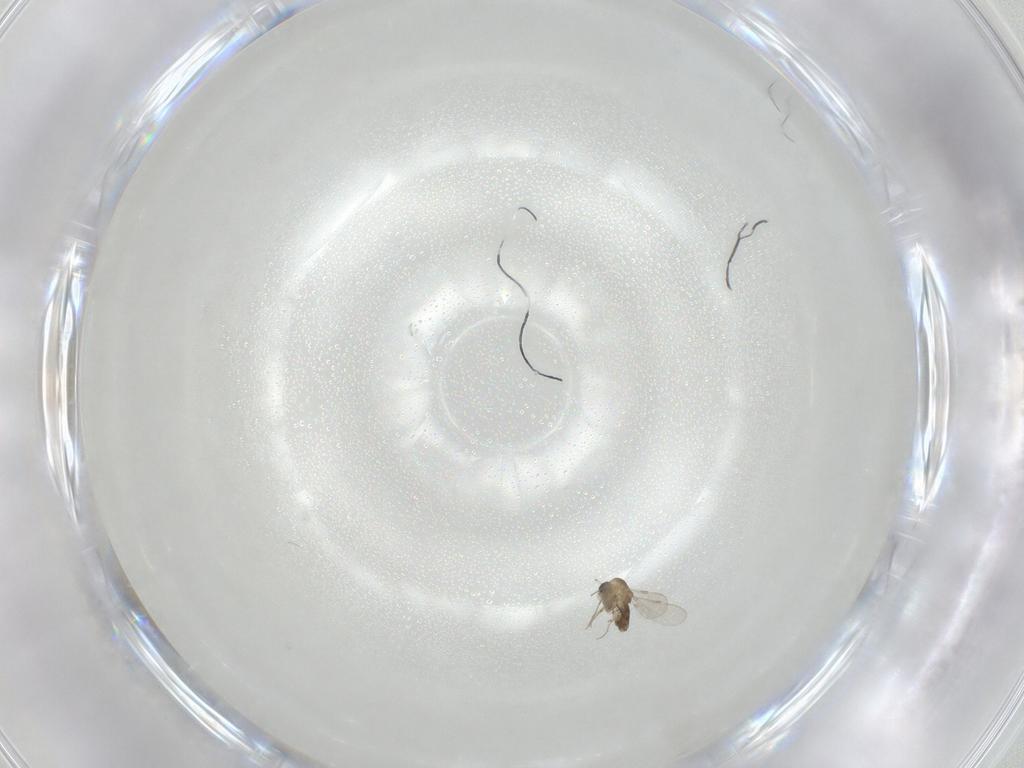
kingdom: Animalia
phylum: Arthropoda
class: Insecta
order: Diptera
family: Chironomidae
